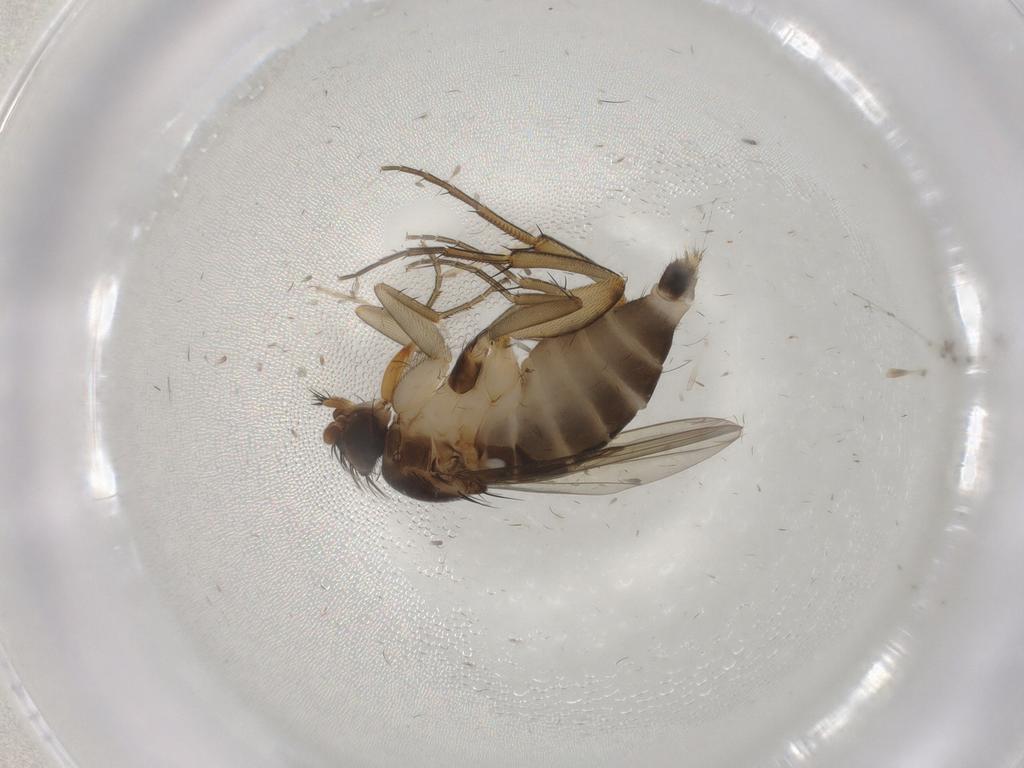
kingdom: Animalia
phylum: Arthropoda
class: Insecta
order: Diptera
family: Phoridae
